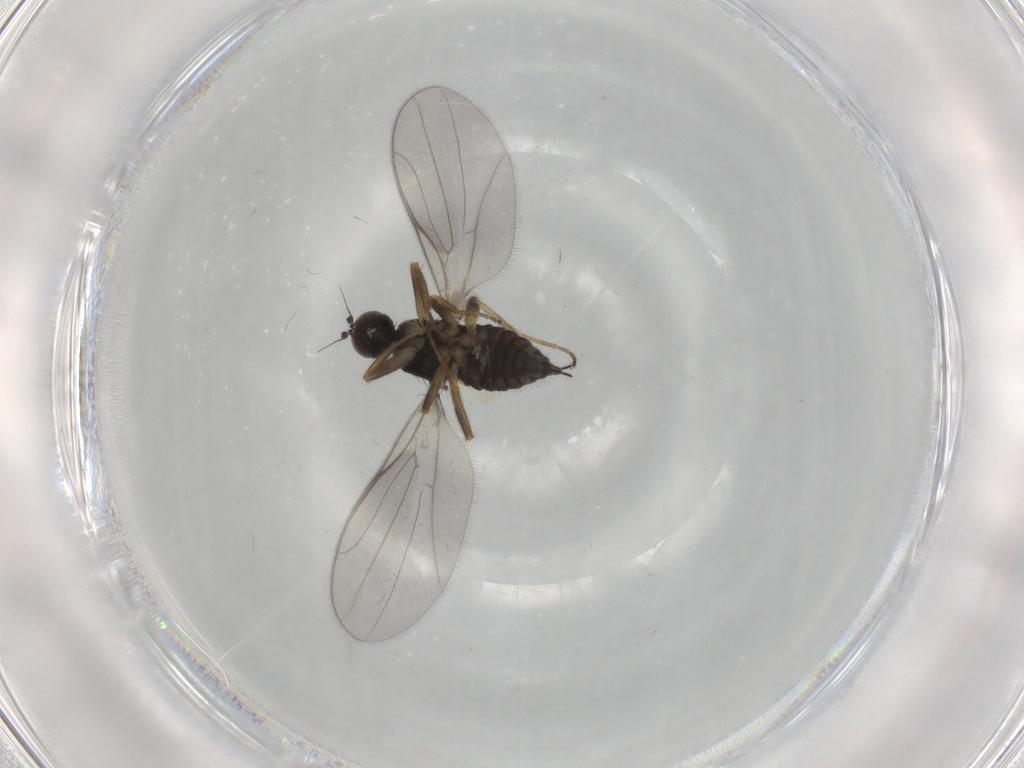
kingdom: Animalia
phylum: Arthropoda
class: Insecta
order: Diptera
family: Hybotidae
